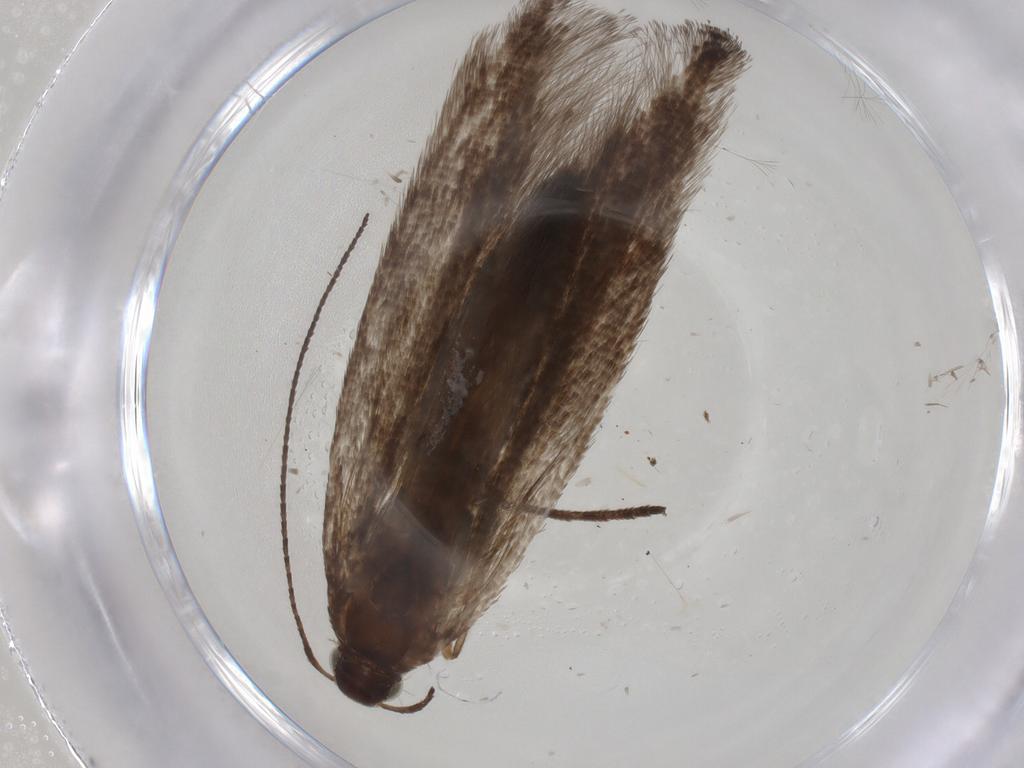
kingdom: Animalia
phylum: Arthropoda
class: Insecta
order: Lepidoptera
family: Gelechiidae
